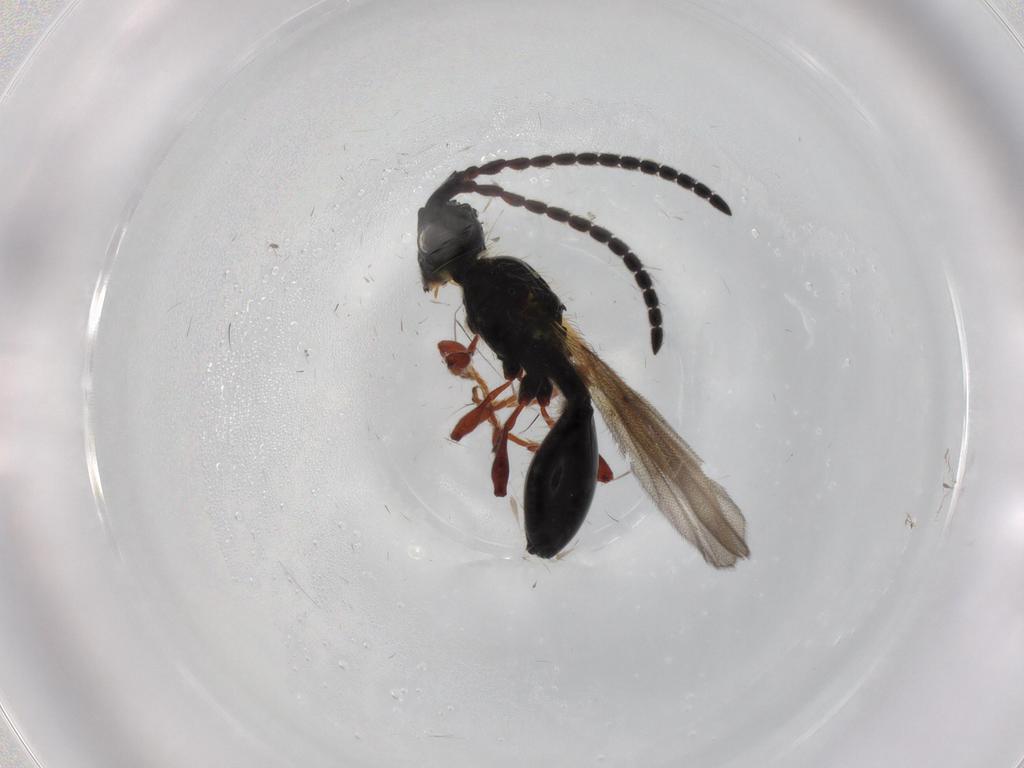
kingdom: Animalia
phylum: Arthropoda
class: Insecta
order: Hymenoptera
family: Diapriidae
